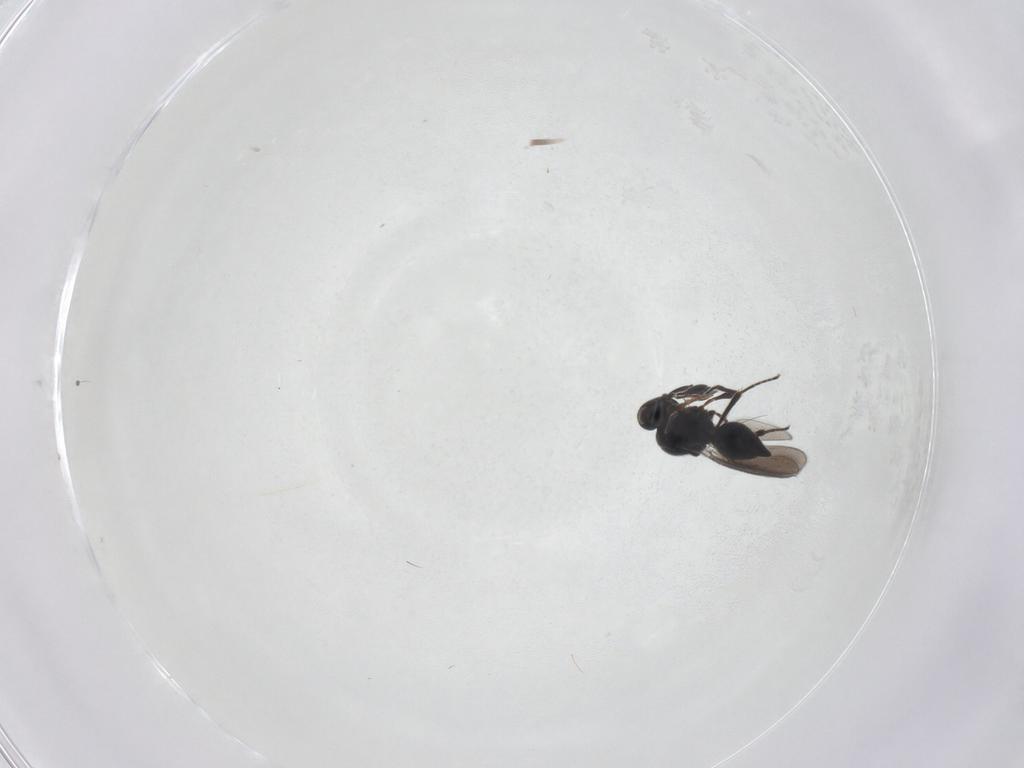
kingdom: Animalia
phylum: Arthropoda
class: Insecta
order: Hymenoptera
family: Platygastridae
